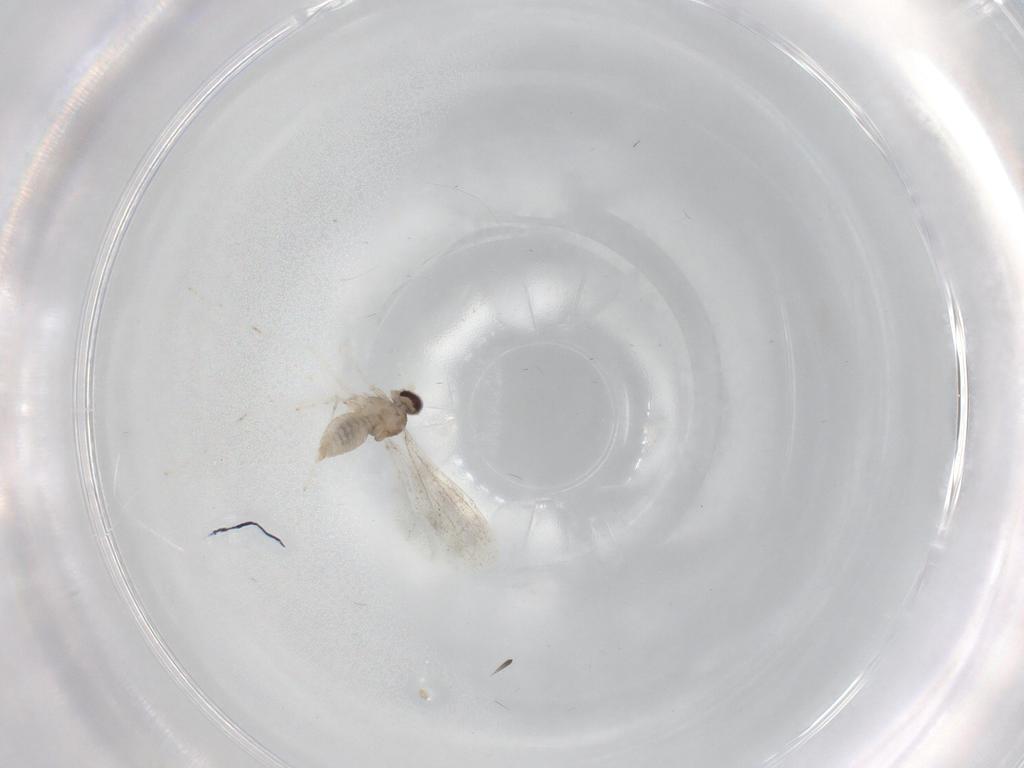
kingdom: Animalia
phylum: Arthropoda
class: Insecta
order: Diptera
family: Cecidomyiidae
